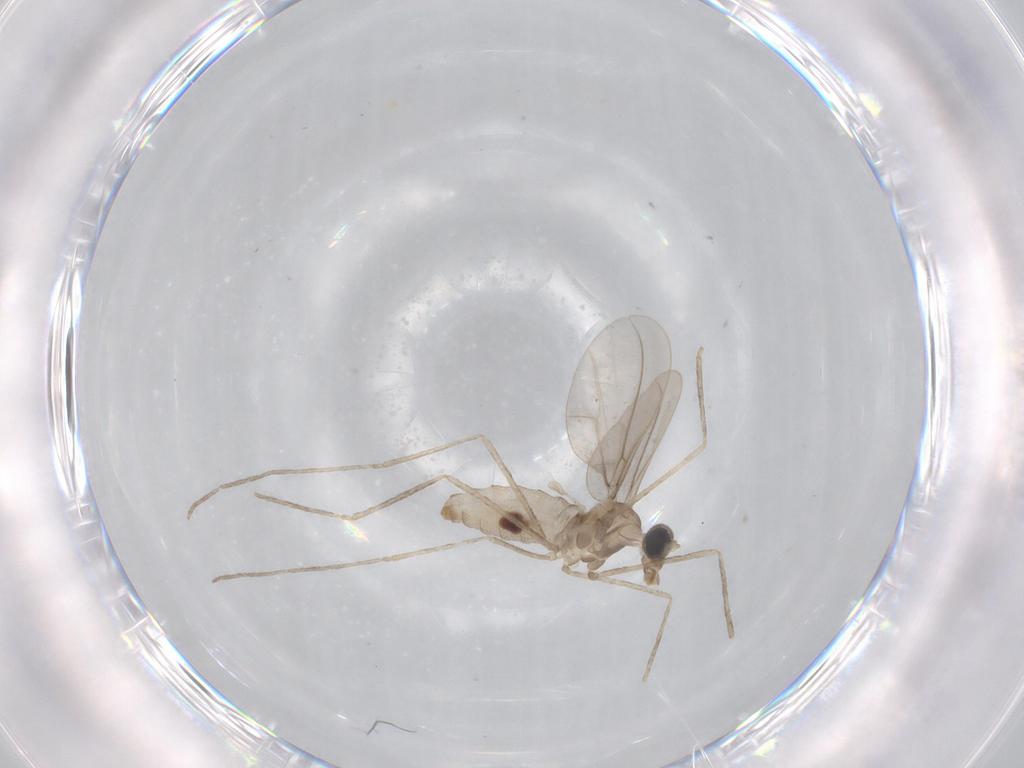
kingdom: Animalia
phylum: Arthropoda
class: Insecta
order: Diptera
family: Cecidomyiidae
